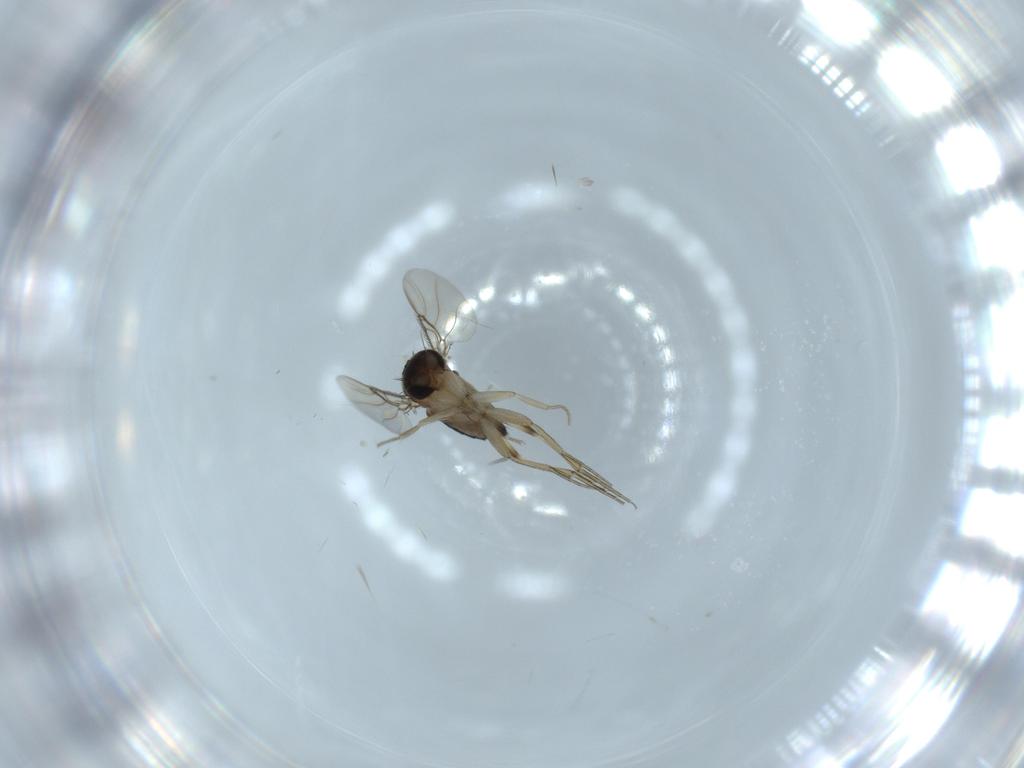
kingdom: Animalia
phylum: Arthropoda
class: Insecta
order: Diptera
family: Phoridae
